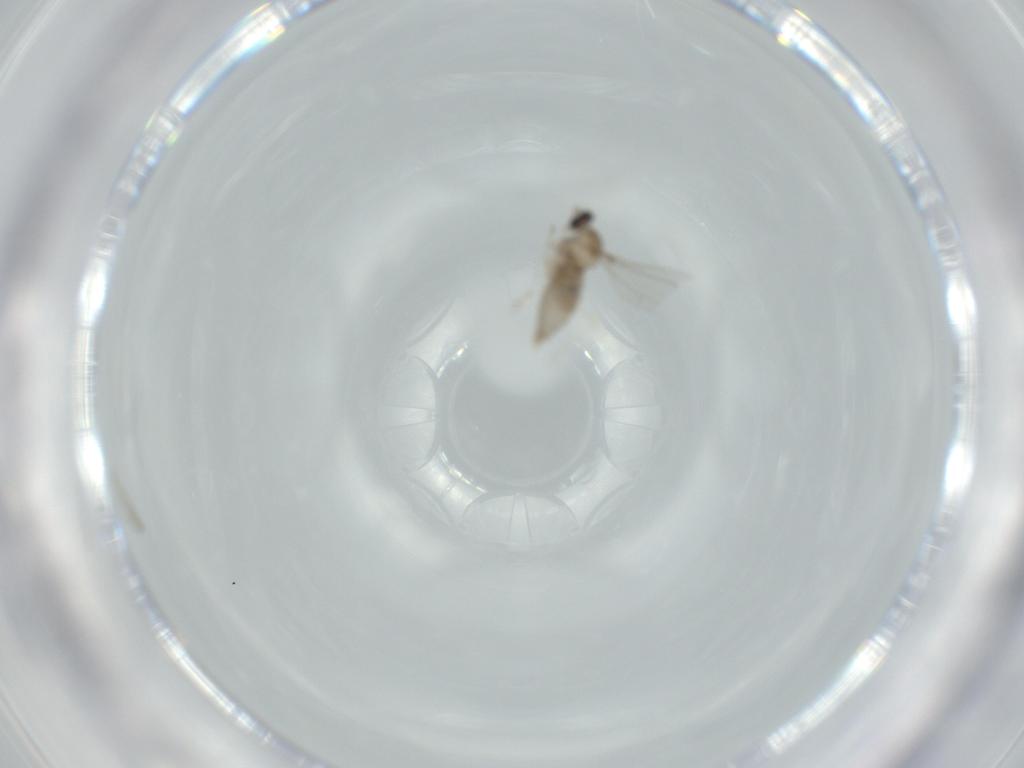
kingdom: Animalia
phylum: Arthropoda
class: Insecta
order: Diptera
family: Cecidomyiidae
